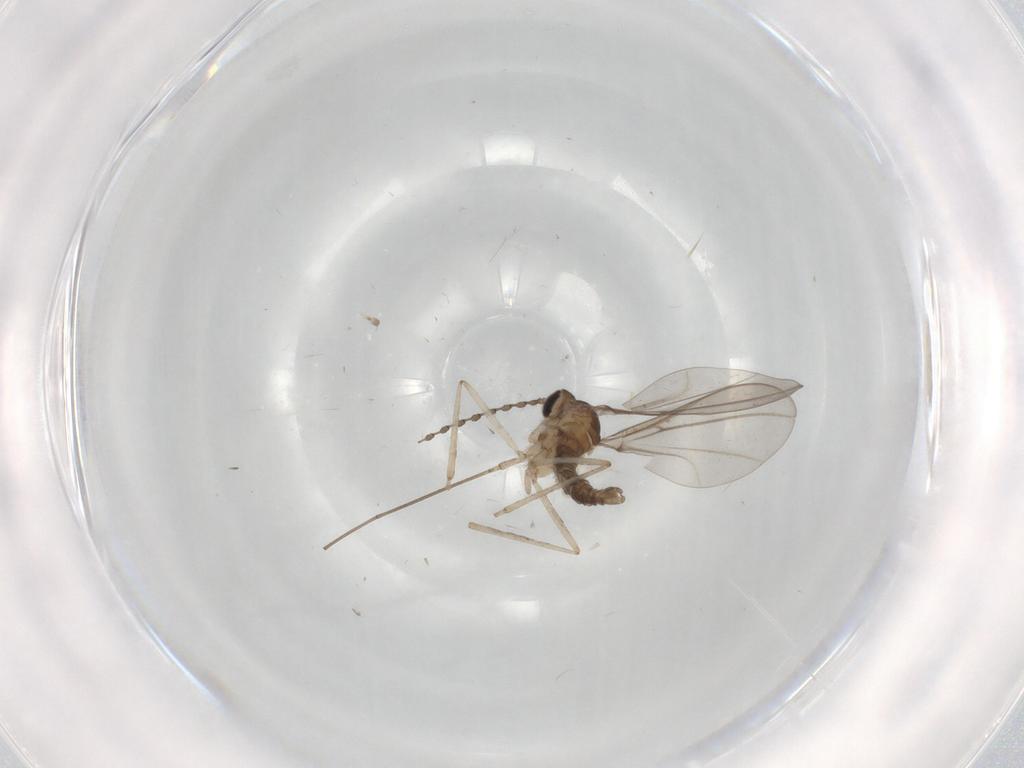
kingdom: Animalia
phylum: Arthropoda
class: Insecta
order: Diptera
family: Cecidomyiidae
